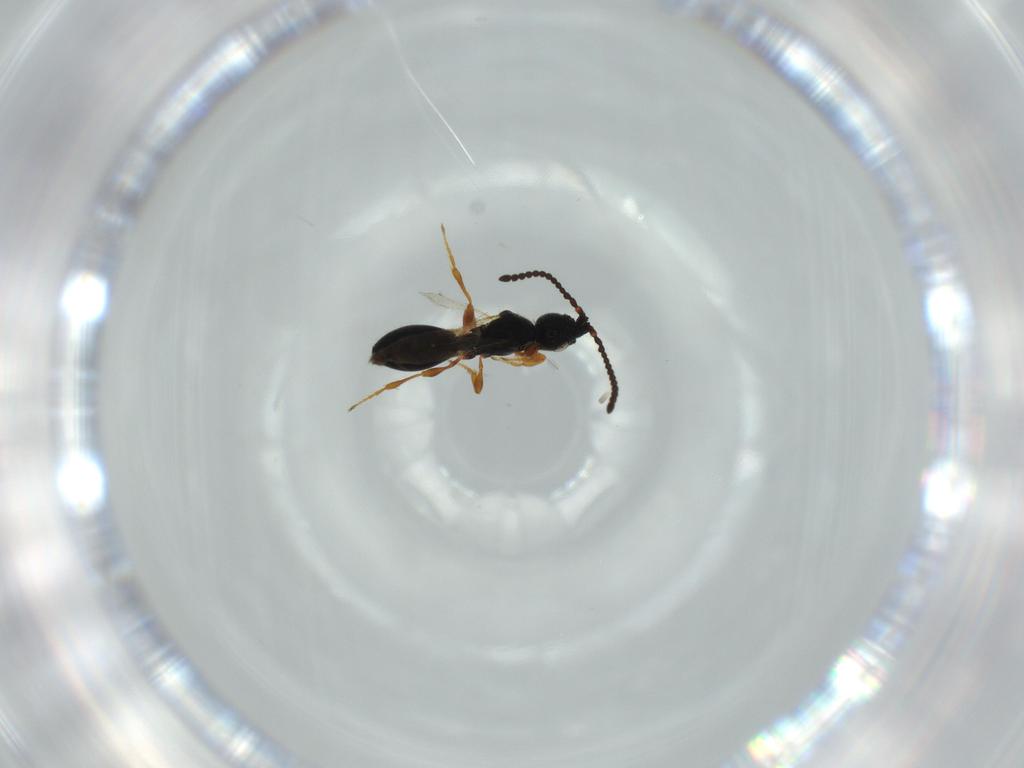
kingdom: Animalia
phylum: Arthropoda
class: Insecta
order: Hymenoptera
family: Diapriidae
